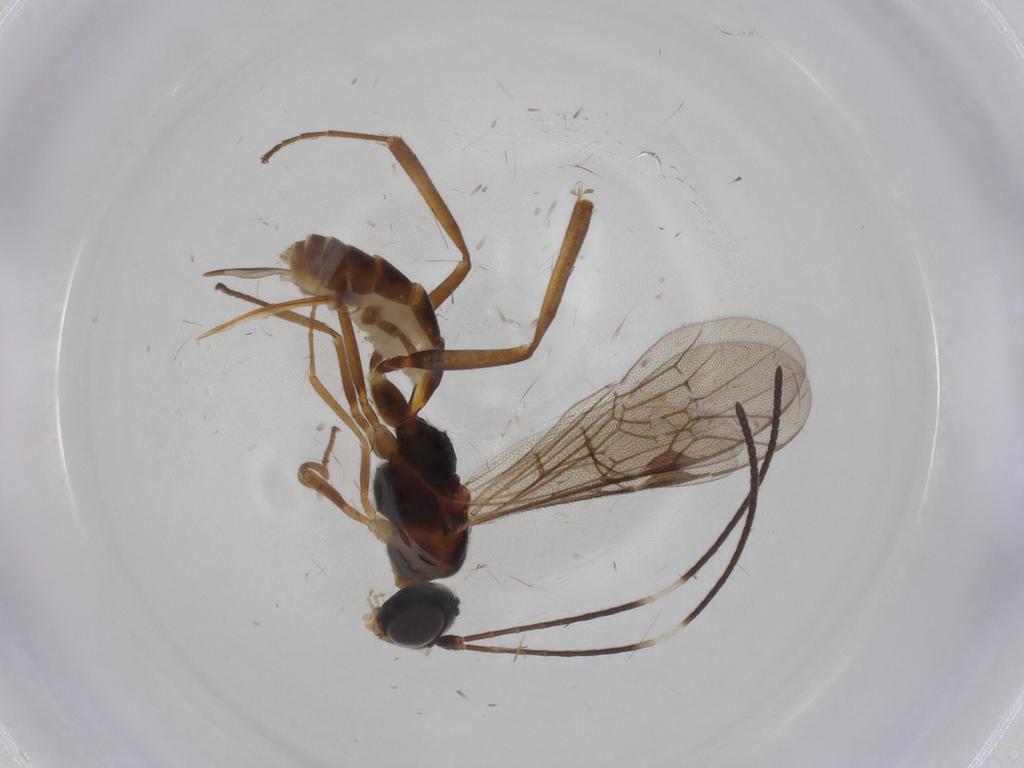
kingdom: Animalia
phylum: Arthropoda
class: Insecta
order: Hymenoptera
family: Ichneumonidae
